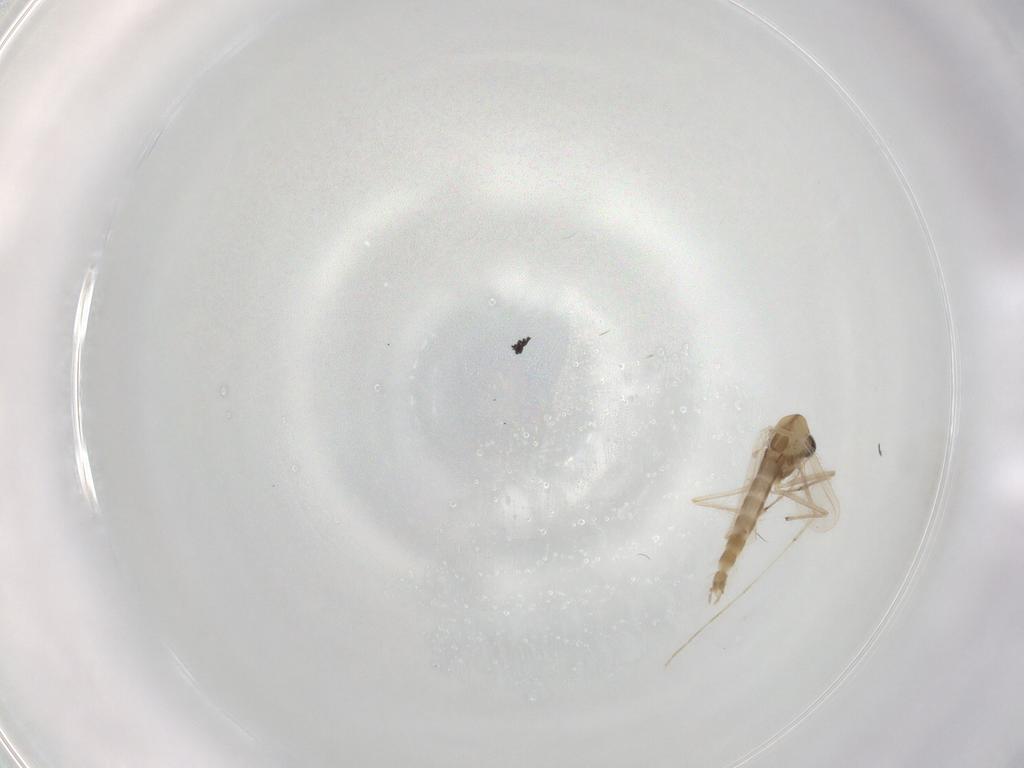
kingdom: Animalia
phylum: Arthropoda
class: Insecta
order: Diptera
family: Chironomidae
